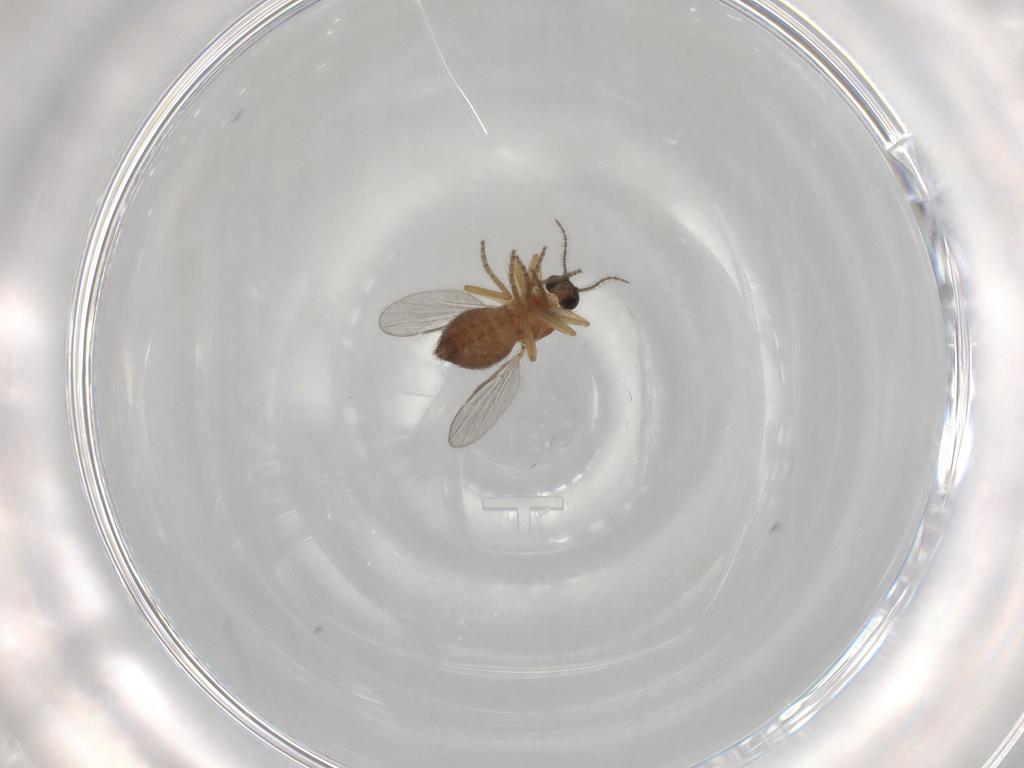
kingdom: Animalia
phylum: Arthropoda
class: Insecta
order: Diptera
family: Ceratopogonidae
